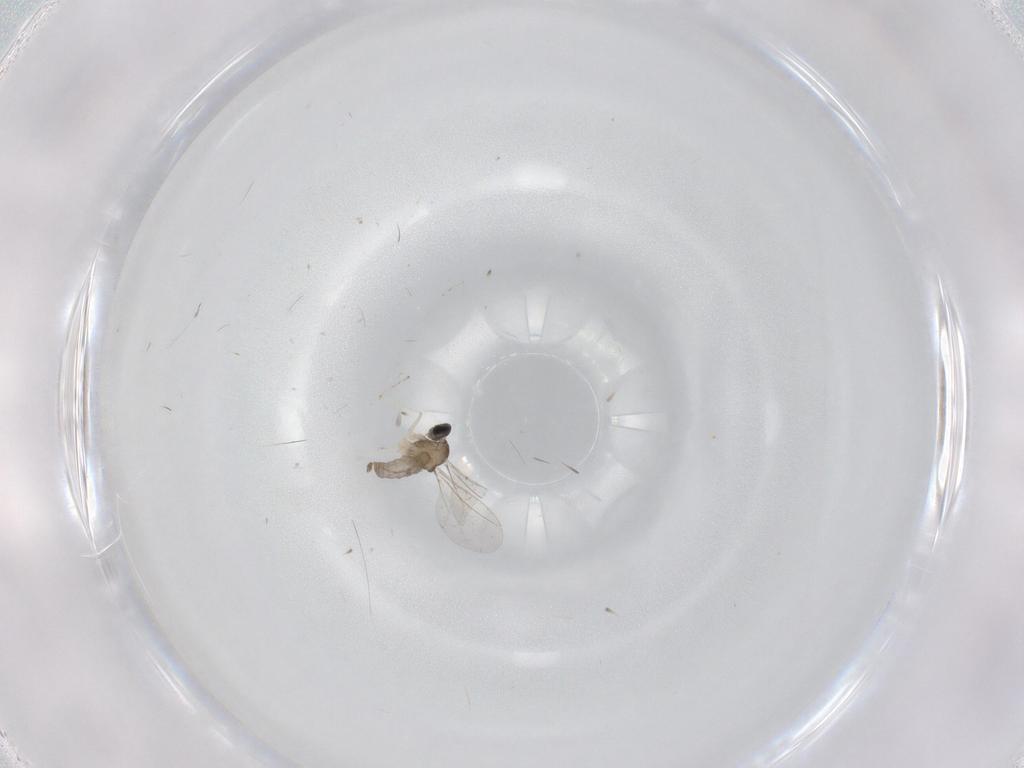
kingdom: Animalia
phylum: Arthropoda
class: Insecta
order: Diptera
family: Cecidomyiidae
